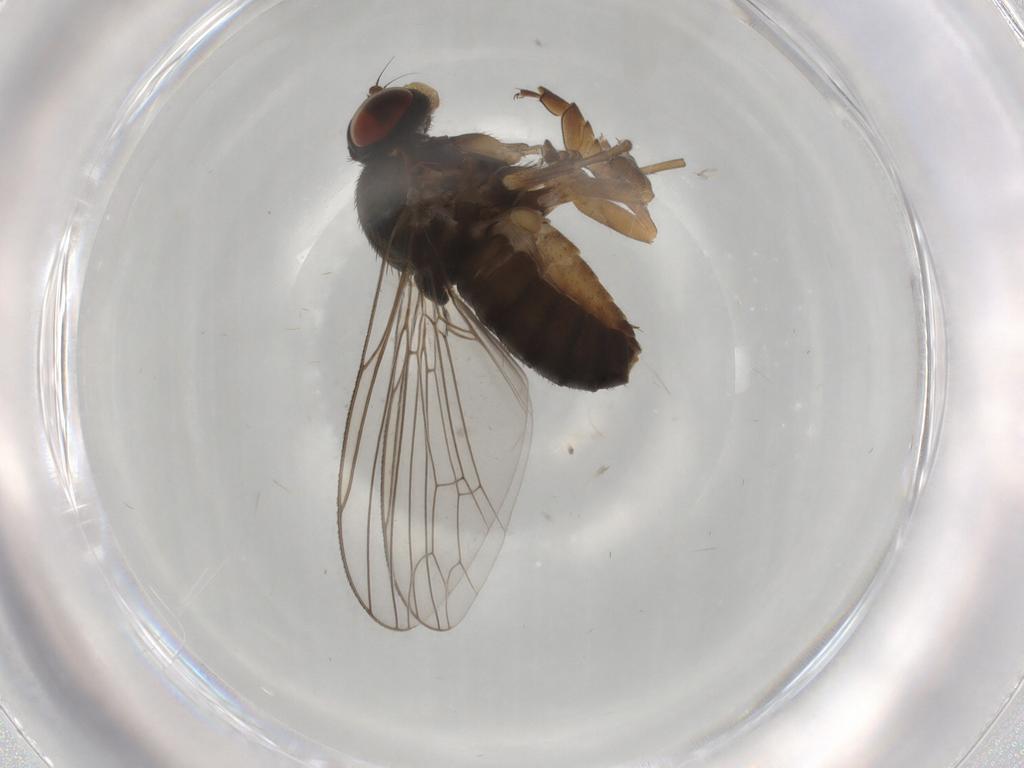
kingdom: Animalia
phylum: Arthropoda
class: Insecta
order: Diptera
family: Platypezidae
